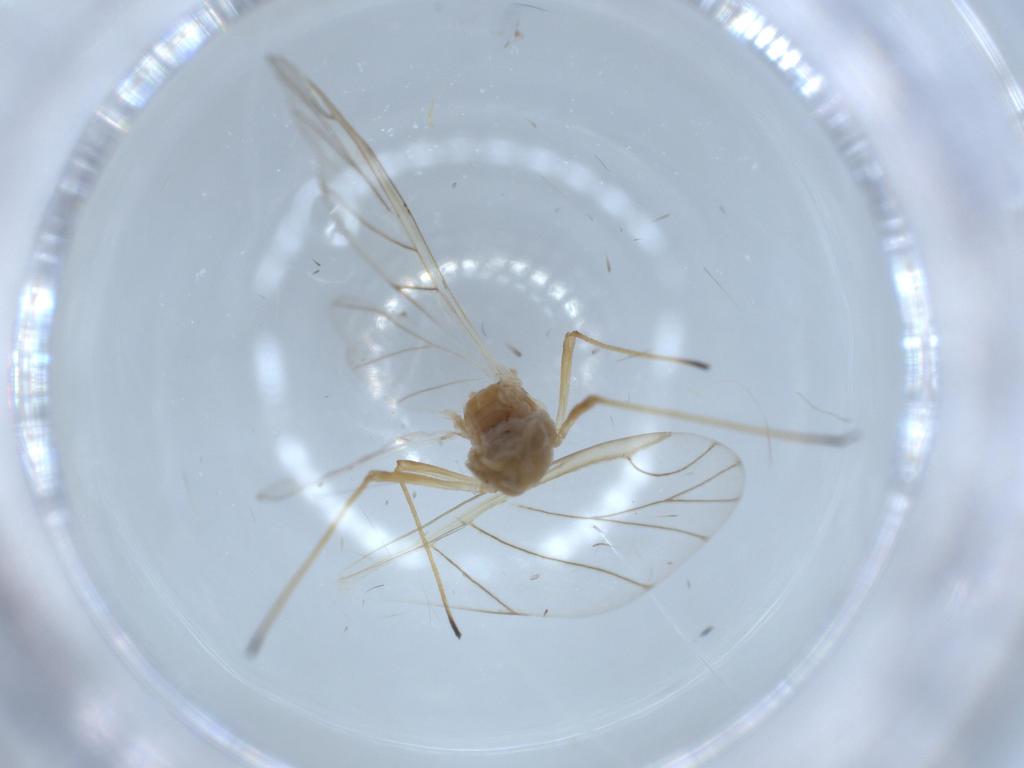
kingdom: Animalia
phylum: Arthropoda
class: Insecta
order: Hemiptera
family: Aphididae
